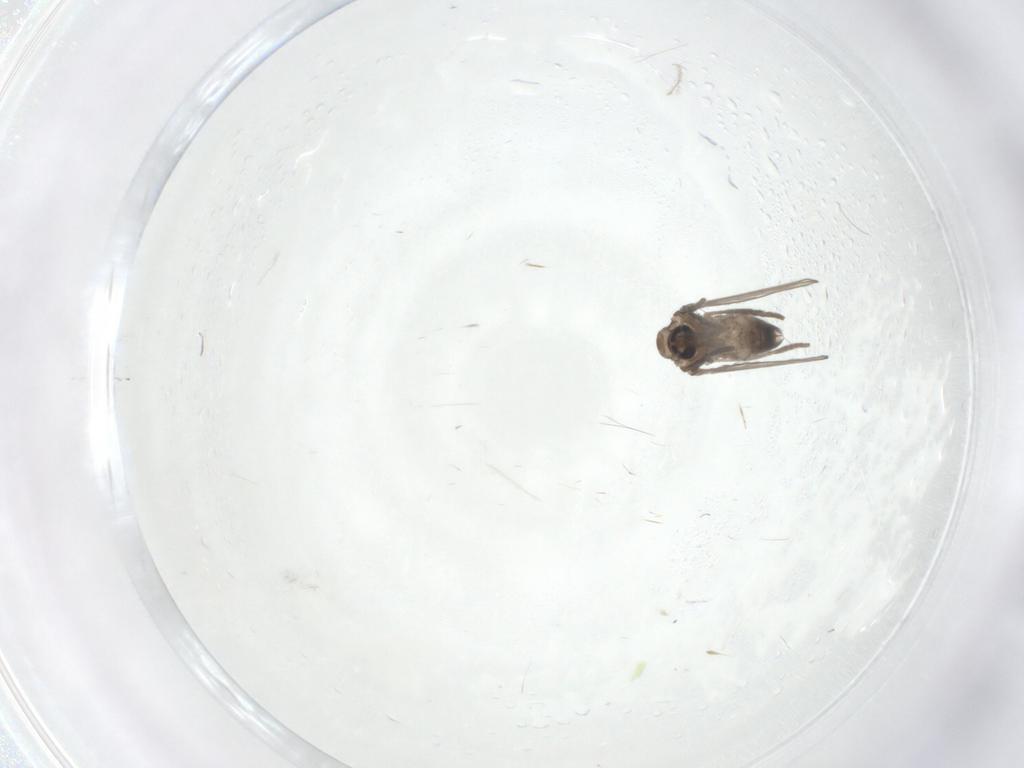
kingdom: Animalia
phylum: Arthropoda
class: Insecta
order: Diptera
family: Chironomidae
